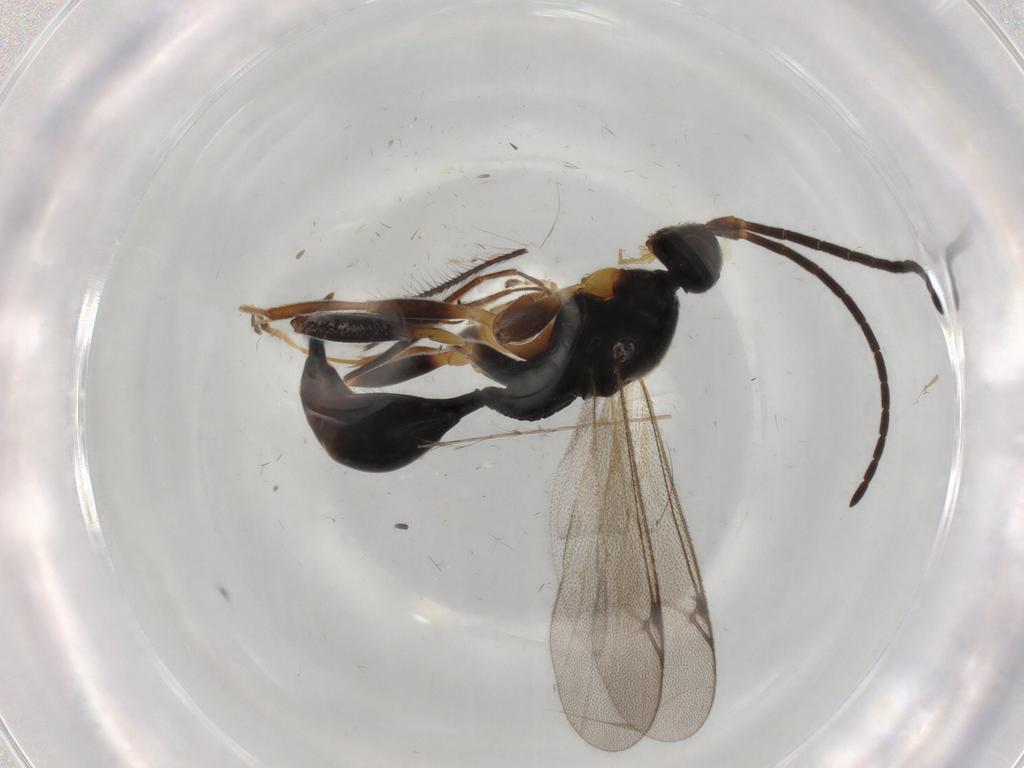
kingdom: Animalia
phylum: Arthropoda
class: Insecta
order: Hymenoptera
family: Proctotrupidae
